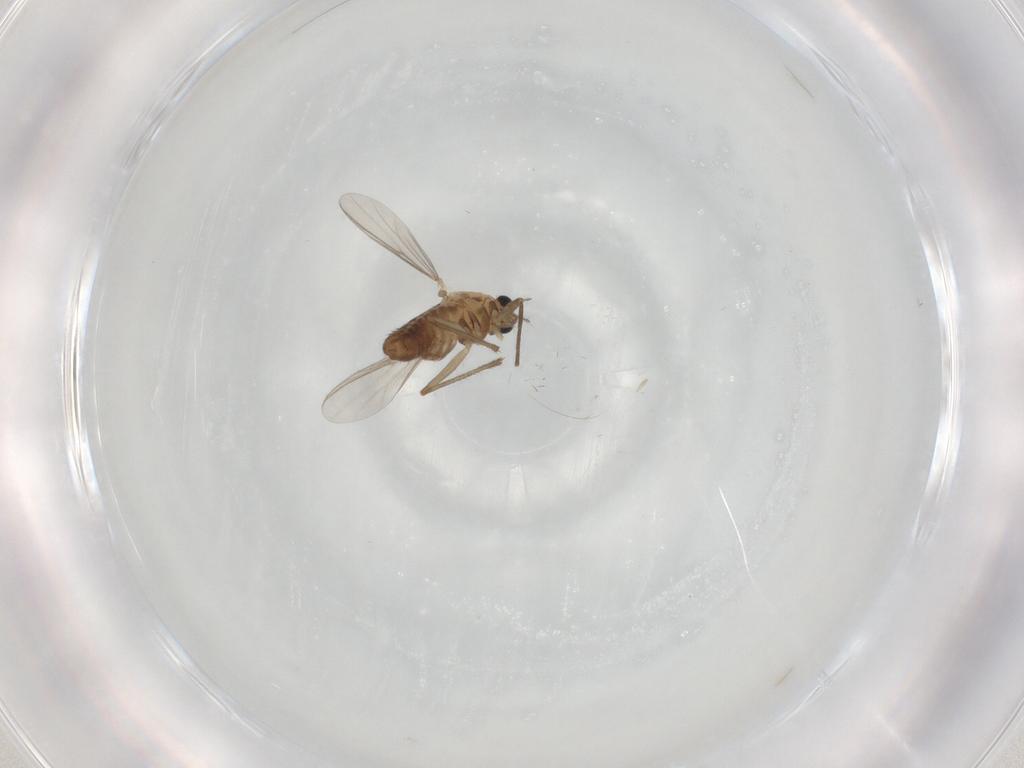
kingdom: Animalia
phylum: Arthropoda
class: Insecta
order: Diptera
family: Chironomidae
